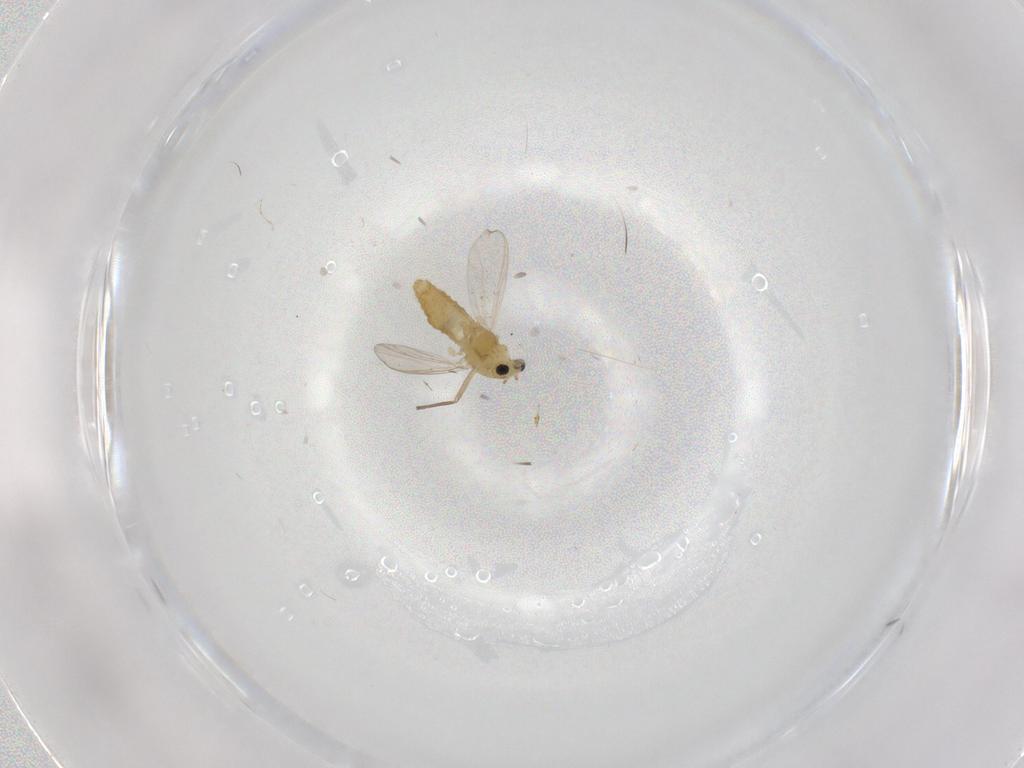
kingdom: Animalia
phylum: Arthropoda
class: Insecta
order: Diptera
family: Chironomidae
